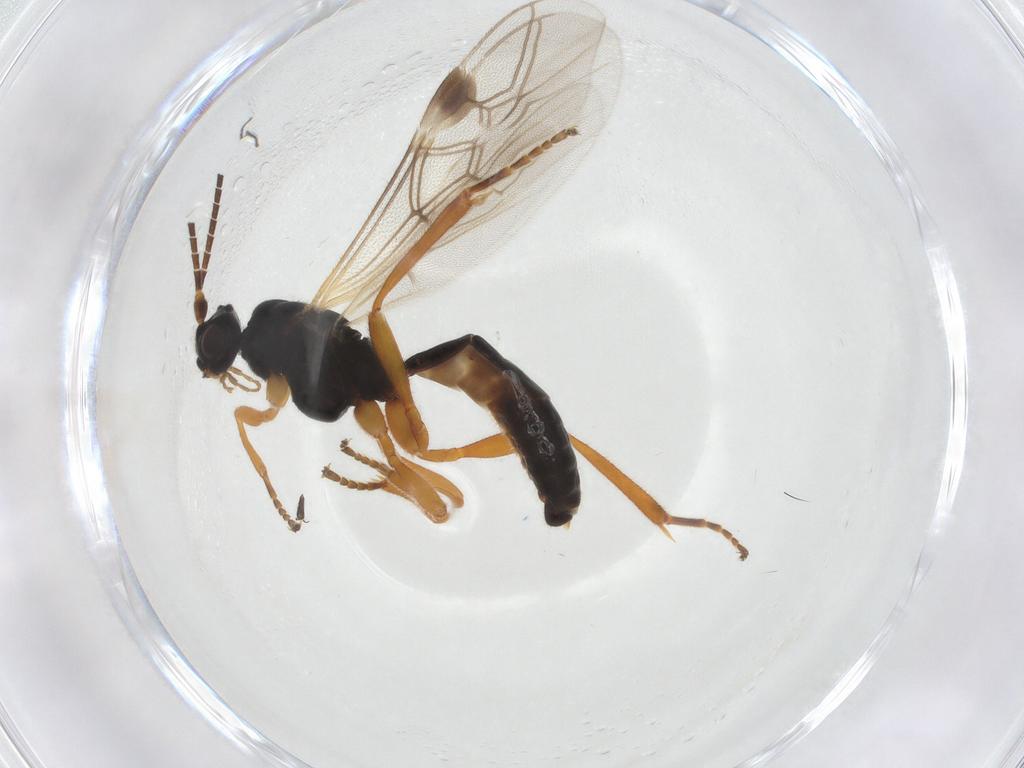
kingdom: Animalia
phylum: Arthropoda
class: Insecta
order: Hymenoptera
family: Braconidae
